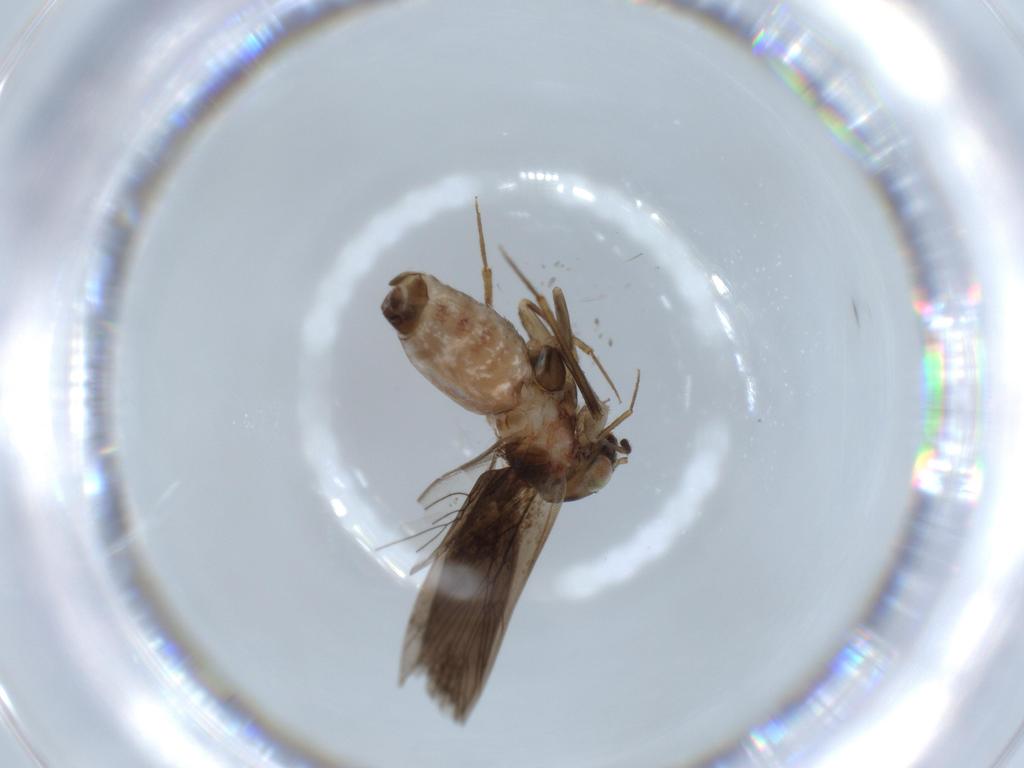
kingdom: Animalia
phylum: Arthropoda
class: Insecta
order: Psocodea
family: Lepidopsocidae
